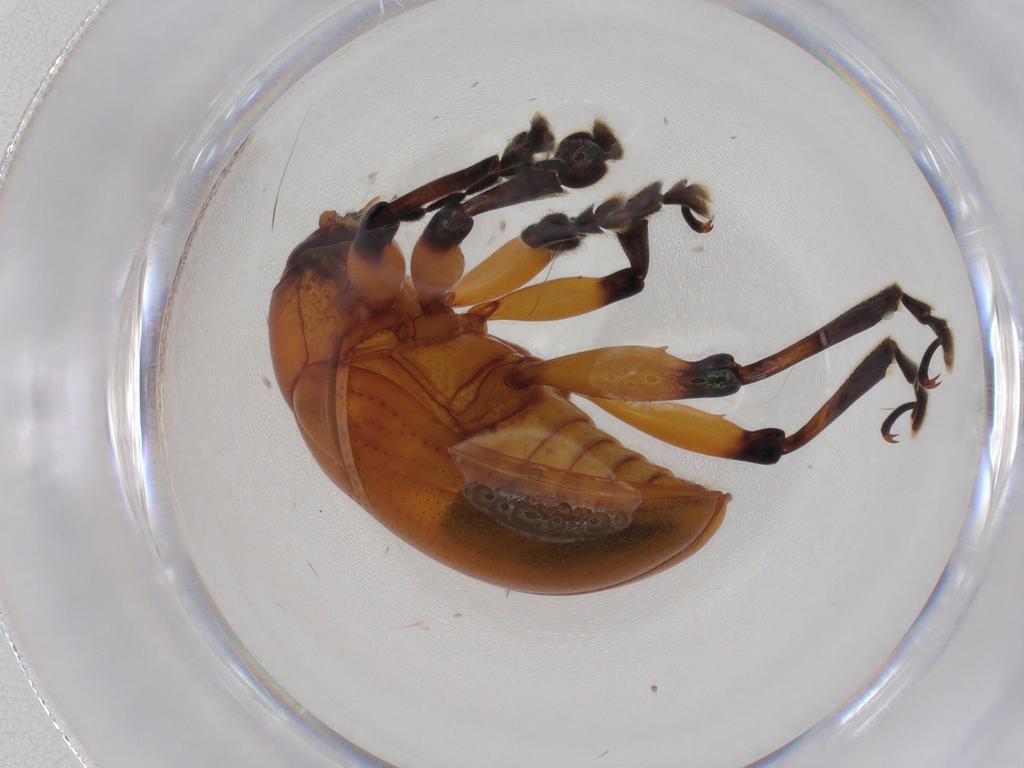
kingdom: Animalia
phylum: Arthropoda
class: Insecta
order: Coleoptera
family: Chrysomelidae
